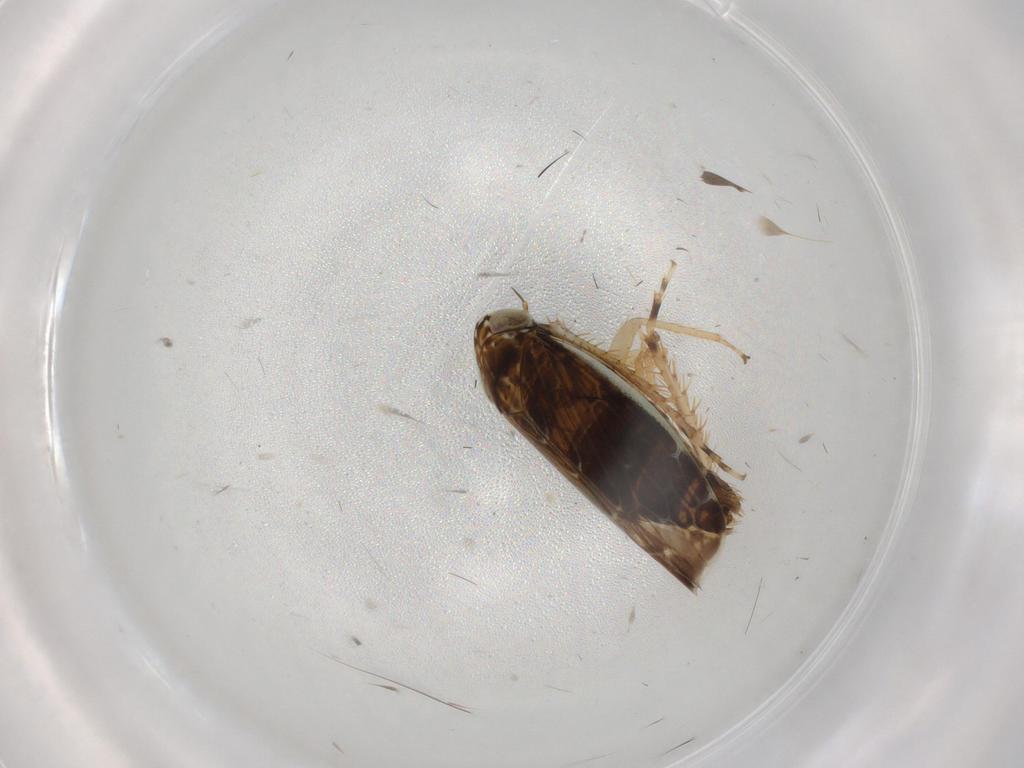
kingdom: Animalia
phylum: Arthropoda
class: Insecta
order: Hemiptera
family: Cicadellidae
